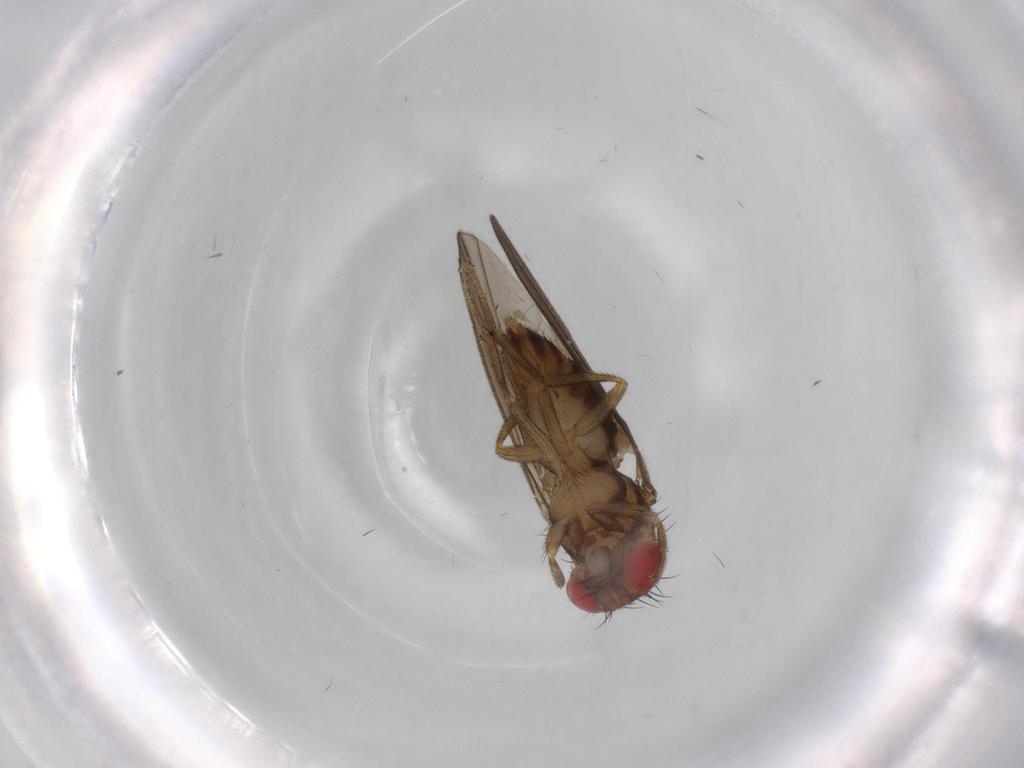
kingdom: Animalia
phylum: Arthropoda
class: Insecta
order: Diptera
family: Drosophilidae
